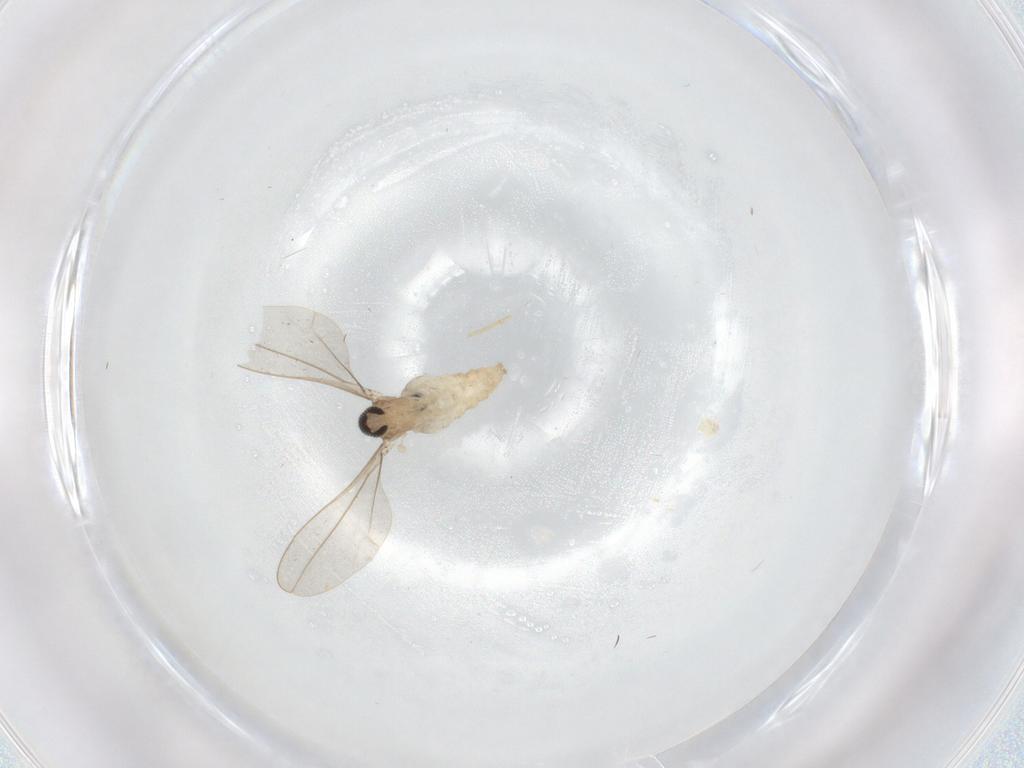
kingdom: Animalia
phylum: Arthropoda
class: Insecta
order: Diptera
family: Cecidomyiidae
